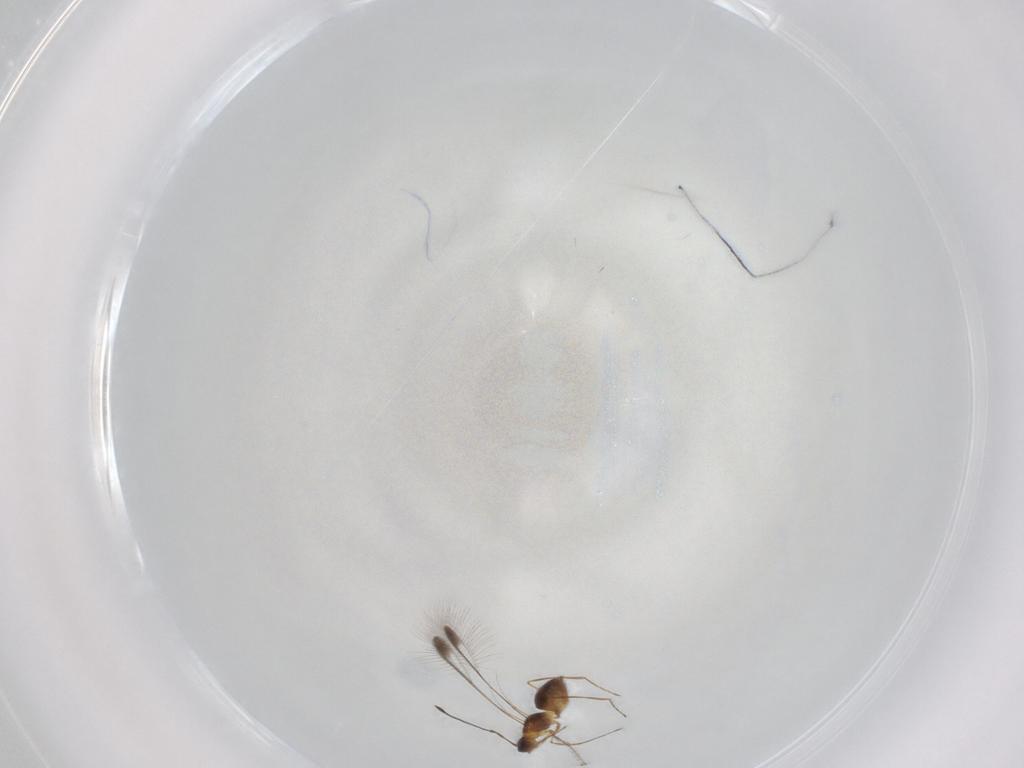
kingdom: Animalia
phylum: Arthropoda
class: Insecta
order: Hymenoptera
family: Mymaridae
